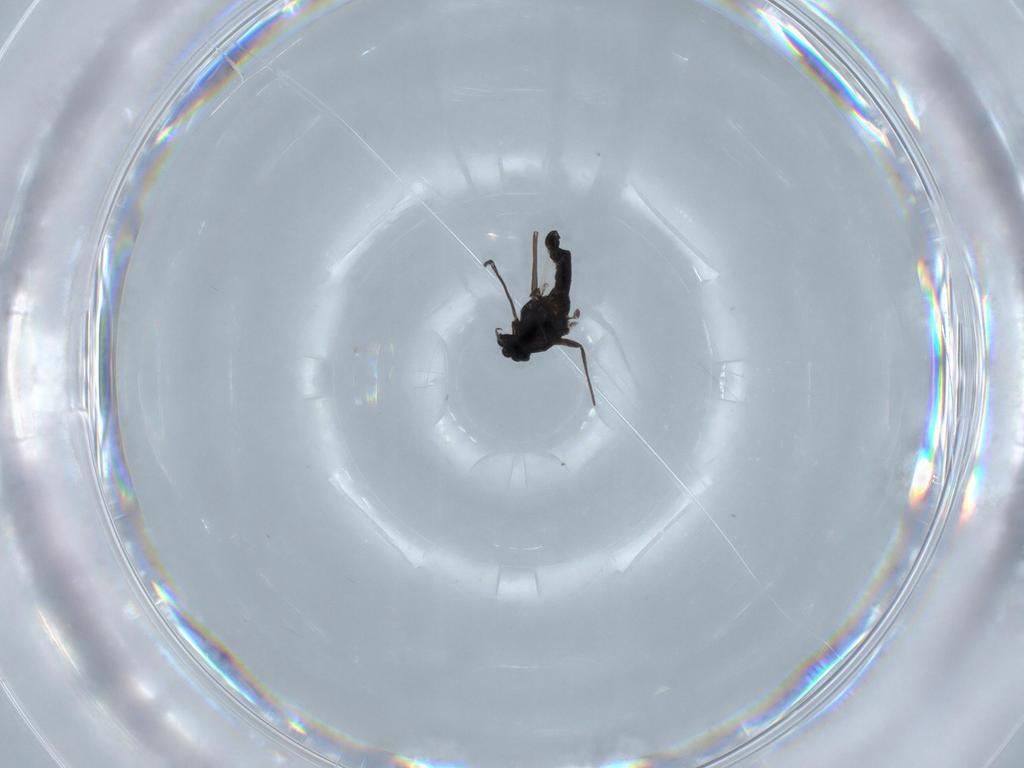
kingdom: Animalia
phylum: Arthropoda
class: Insecta
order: Diptera
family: Chironomidae
